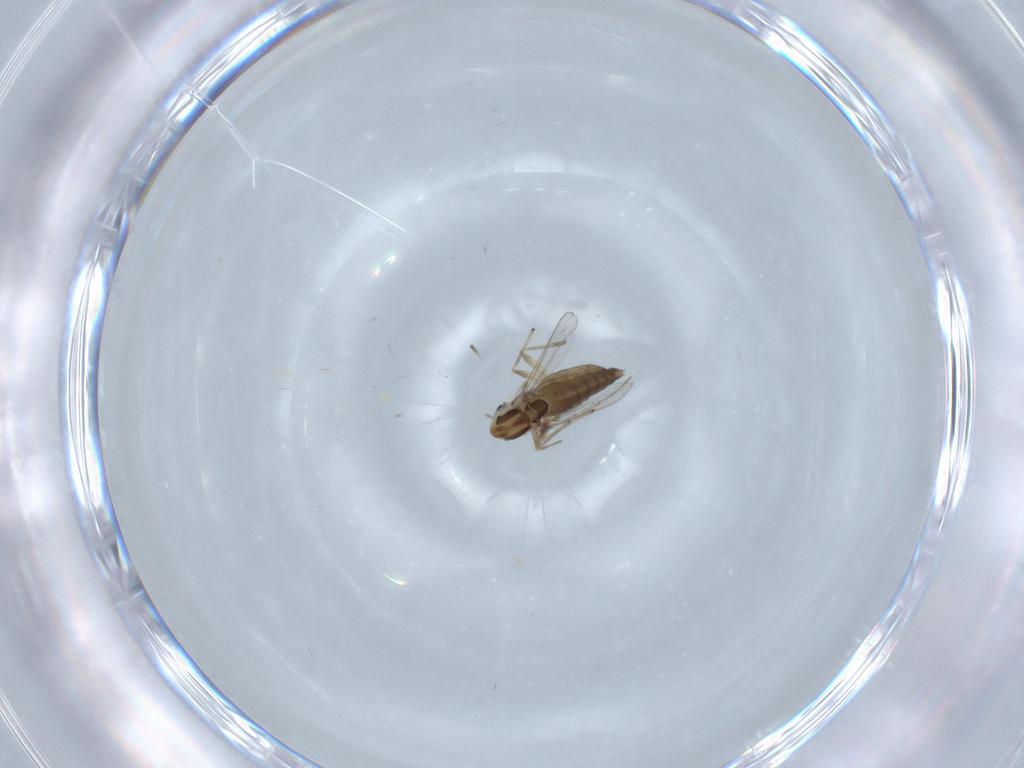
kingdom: Animalia
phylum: Arthropoda
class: Insecta
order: Diptera
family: Chironomidae
